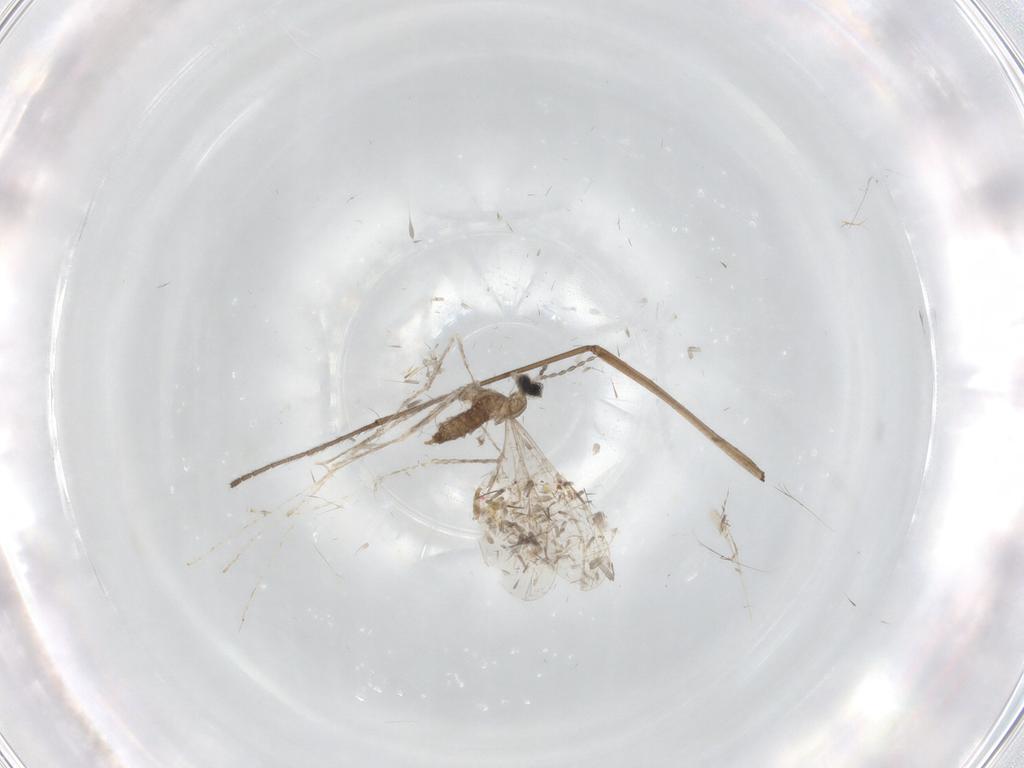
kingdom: Animalia
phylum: Arthropoda
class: Insecta
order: Diptera
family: Cecidomyiidae
